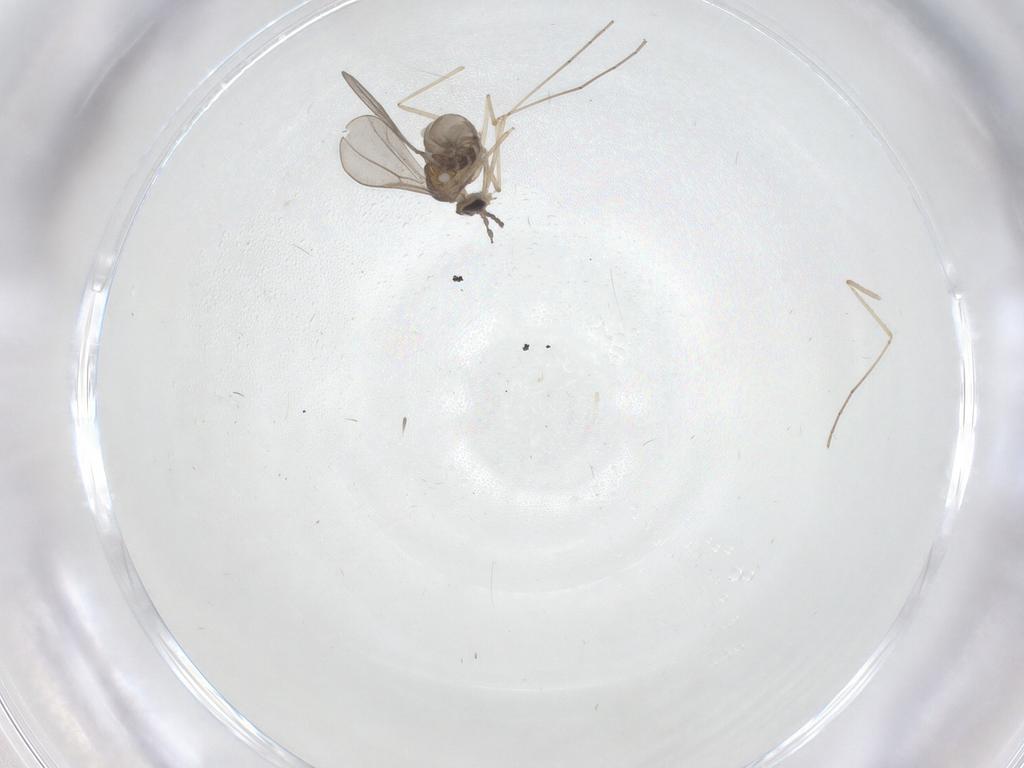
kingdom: Animalia
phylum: Arthropoda
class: Insecta
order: Diptera
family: Cecidomyiidae
